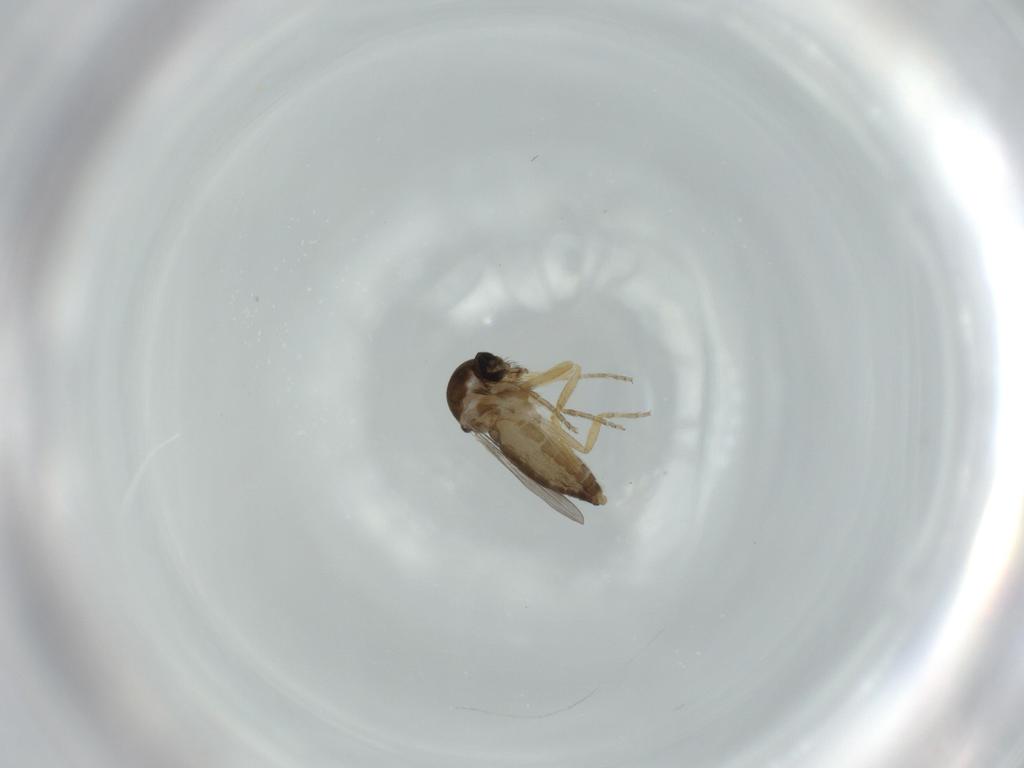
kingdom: Animalia
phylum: Arthropoda
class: Insecta
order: Diptera
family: Ceratopogonidae
